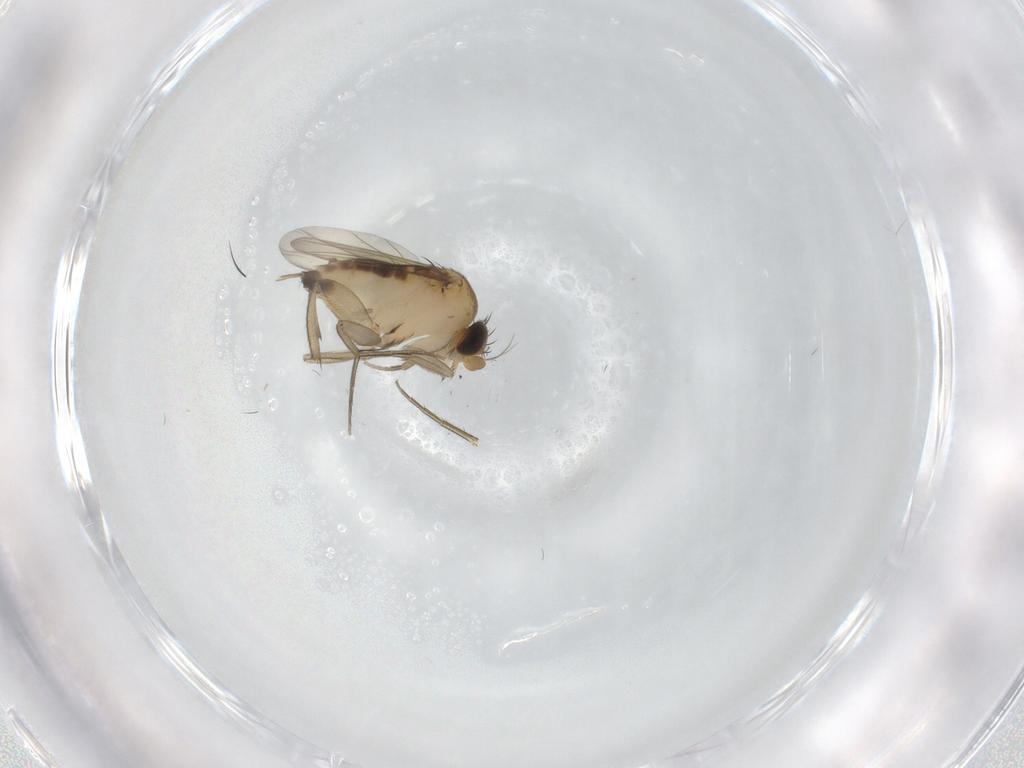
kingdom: Animalia
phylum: Arthropoda
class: Insecta
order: Diptera
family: Phoridae
